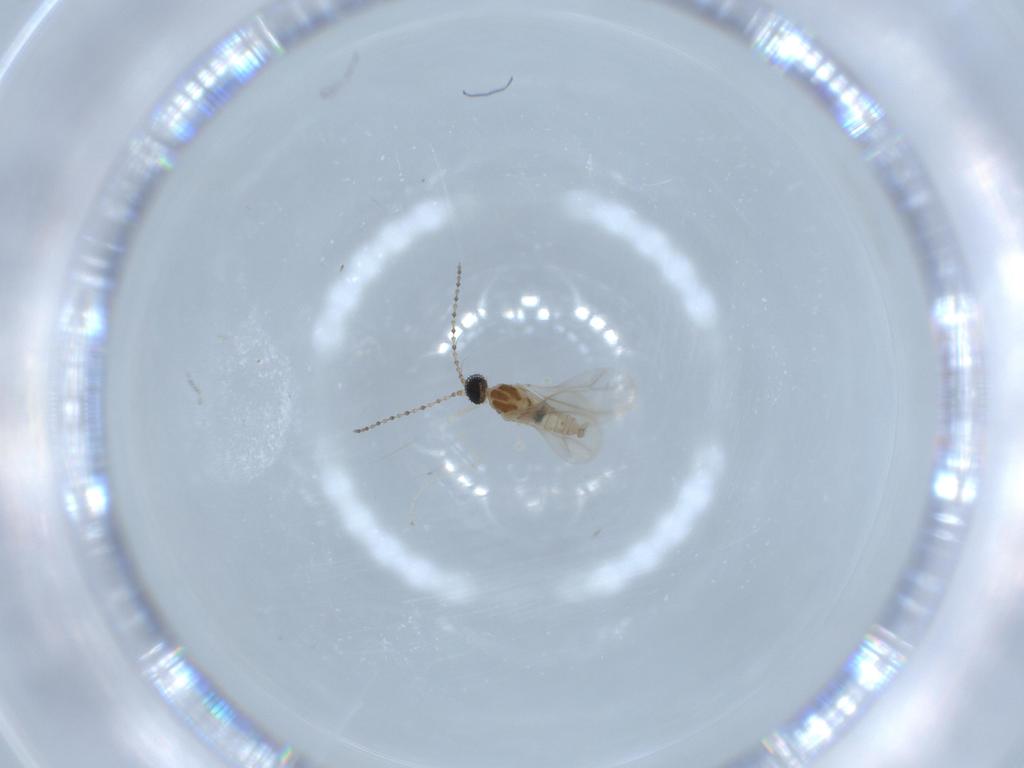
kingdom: Animalia
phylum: Arthropoda
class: Insecta
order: Diptera
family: Cecidomyiidae
